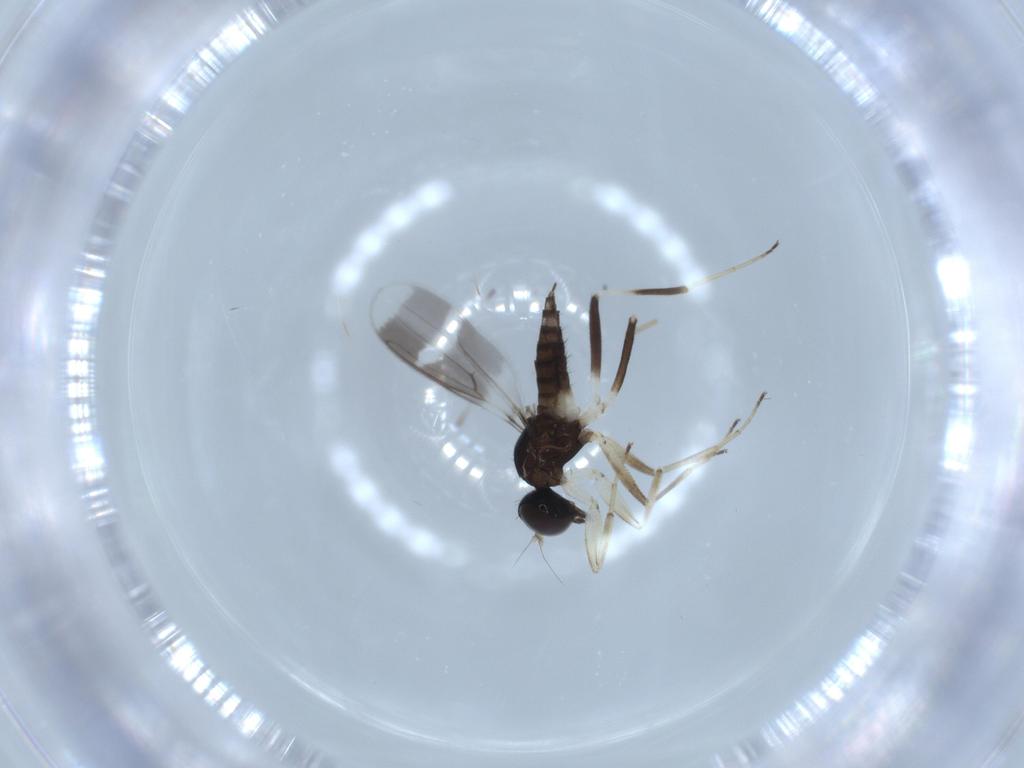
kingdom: Animalia
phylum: Arthropoda
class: Insecta
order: Diptera
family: Hybotidae
